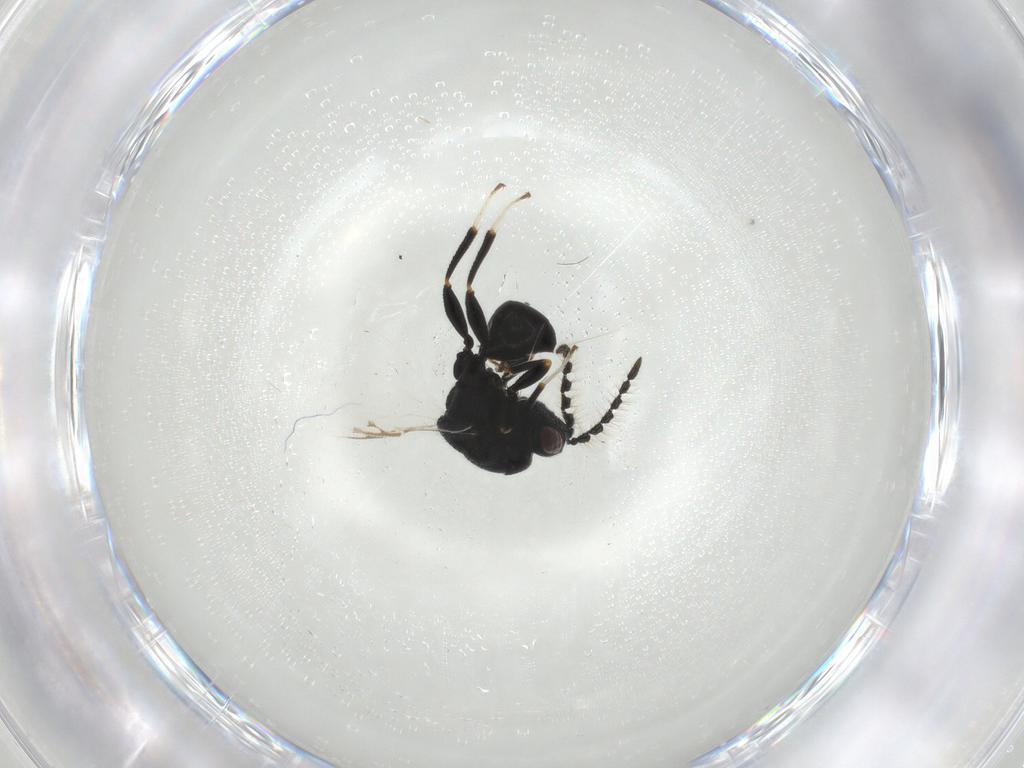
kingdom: Animalia
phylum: Arthropoda
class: Insecta
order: Hymenoptera
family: Eurytomidae
